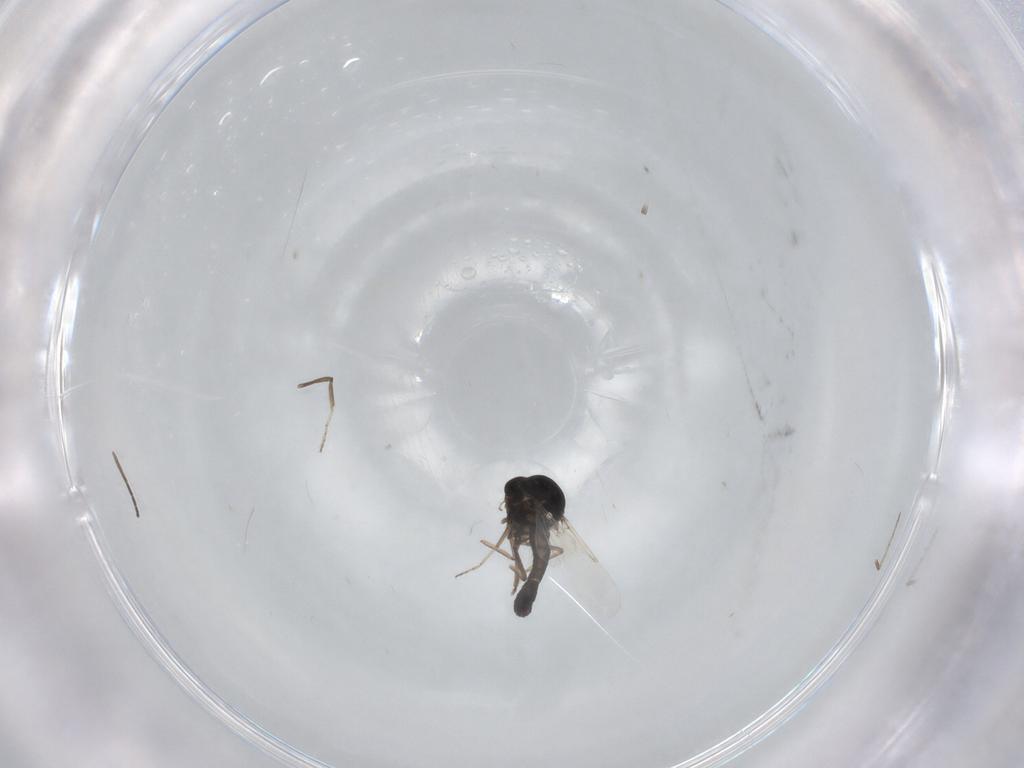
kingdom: Animalia
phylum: Arthropoda
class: Insecta
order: Diptera
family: Ceratopogonidae
